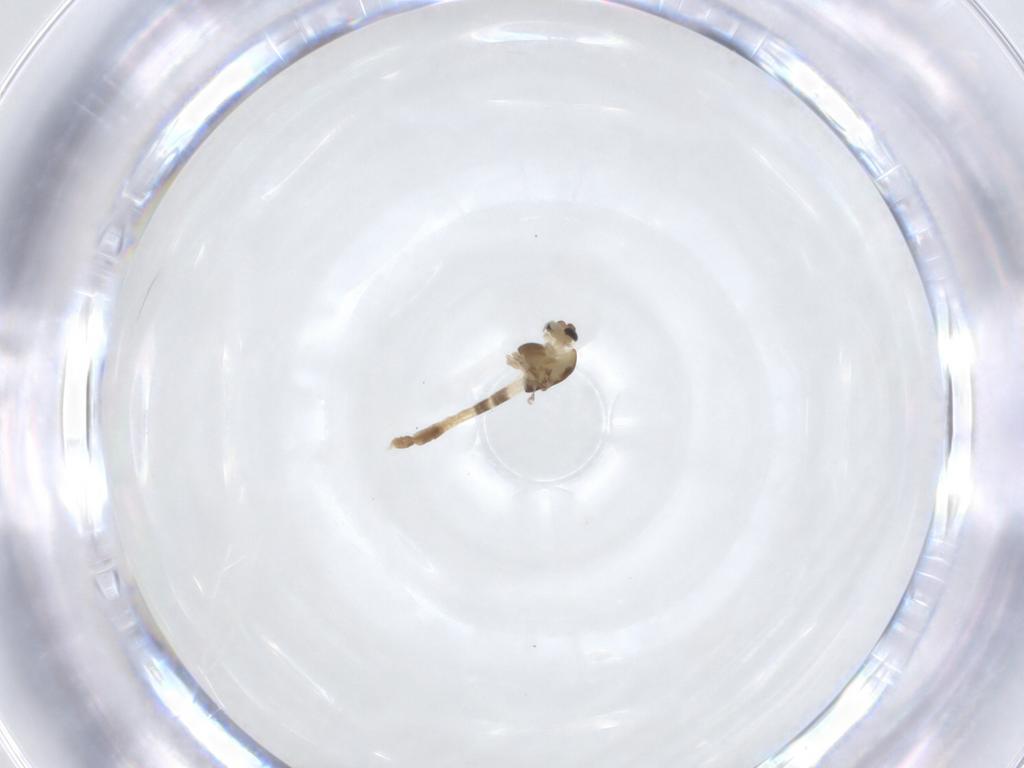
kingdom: Animalia
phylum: Arthropoda
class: Insecta
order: Diptera
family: Chironomidae
